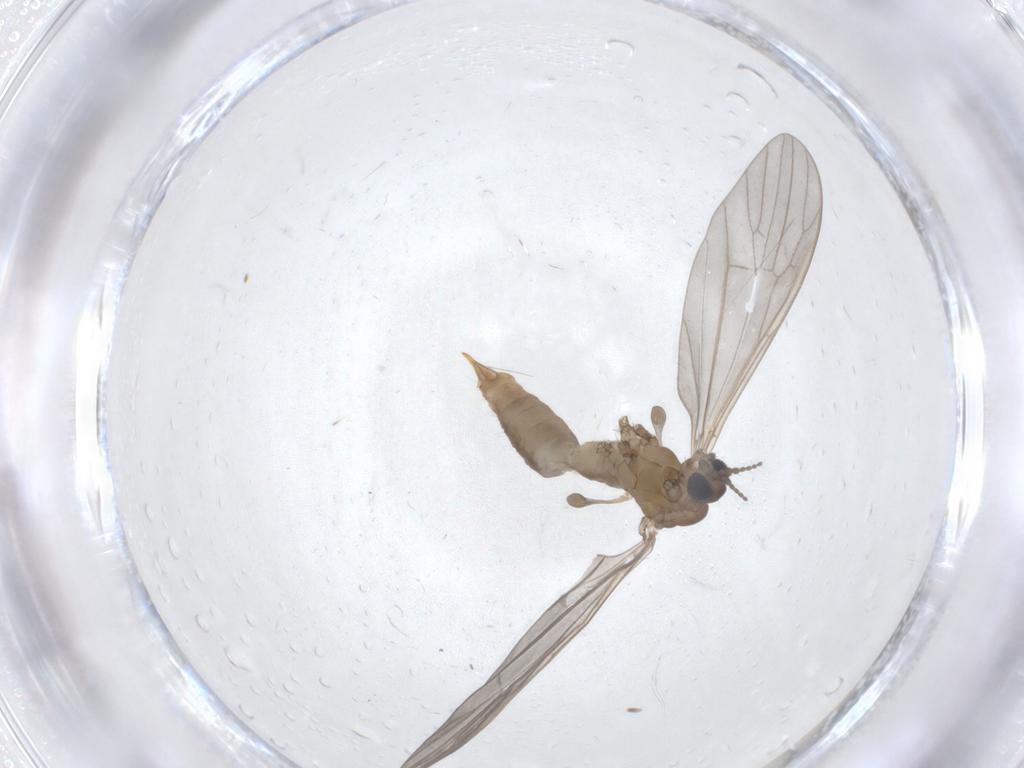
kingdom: Animalia
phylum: Arthropoda
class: Insecta
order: Diptera
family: Limoniidae
